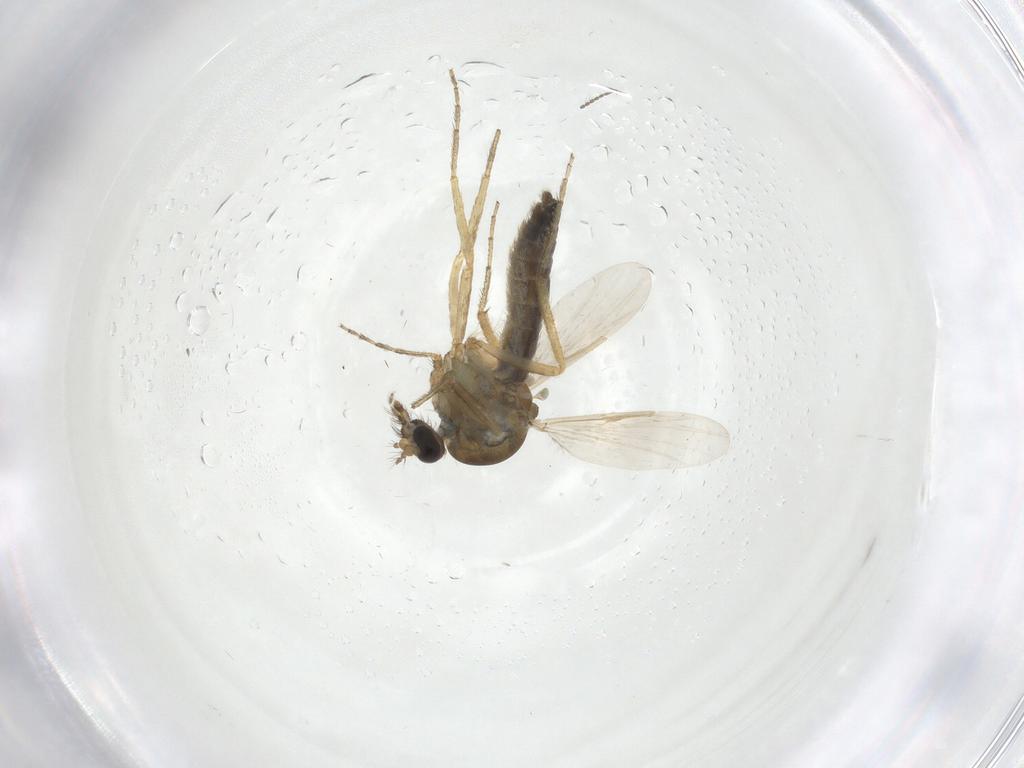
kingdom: Animalia
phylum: Arthropoda
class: Insecta
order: Diptera
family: Ceratopogonidae
